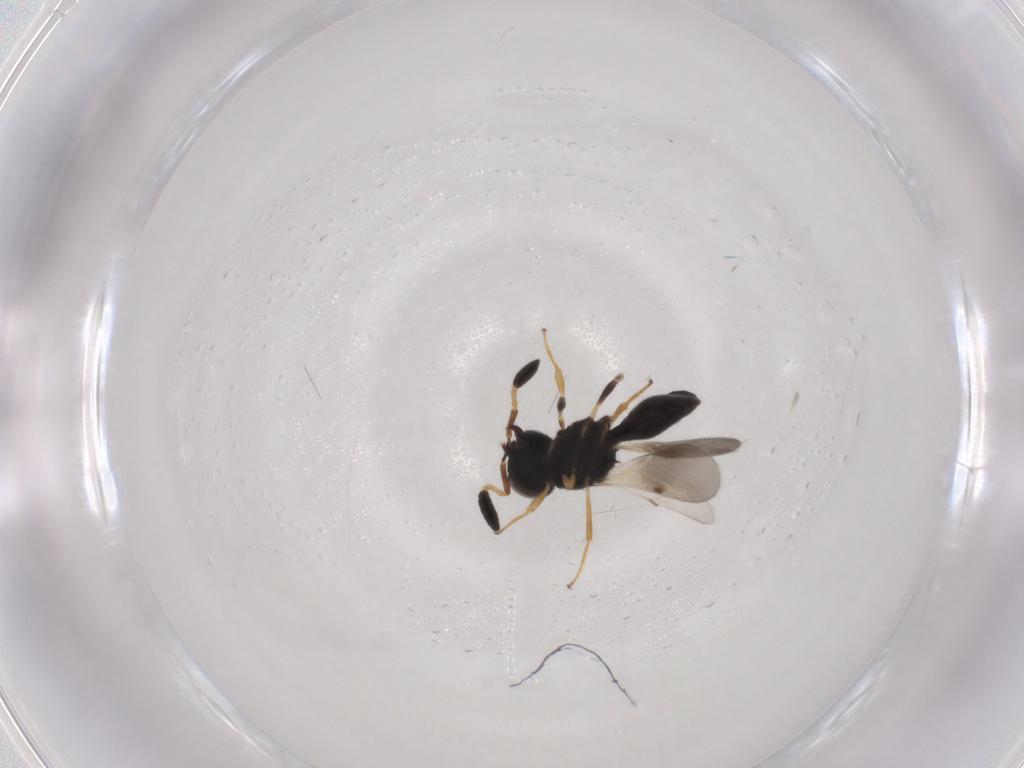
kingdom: Animalia
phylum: Arthropoda
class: Insecta
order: Hymenoptera
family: Scelionidae
